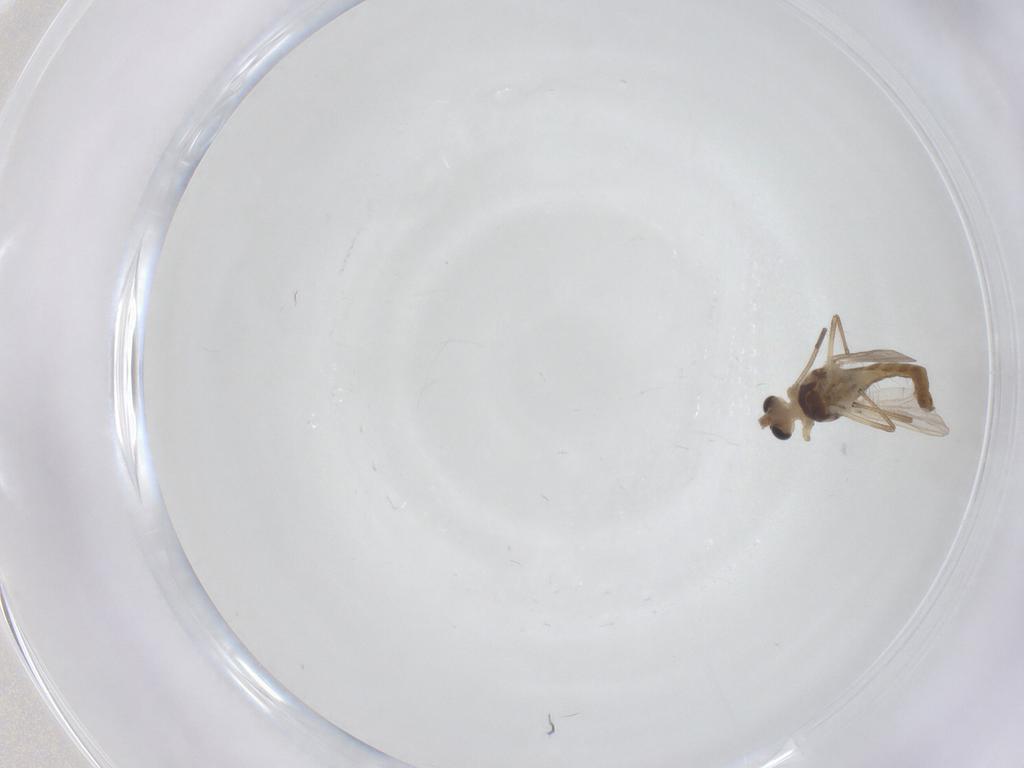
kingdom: Animalia
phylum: Arthropoda
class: Insecta
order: Diptera
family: Chironomidae
